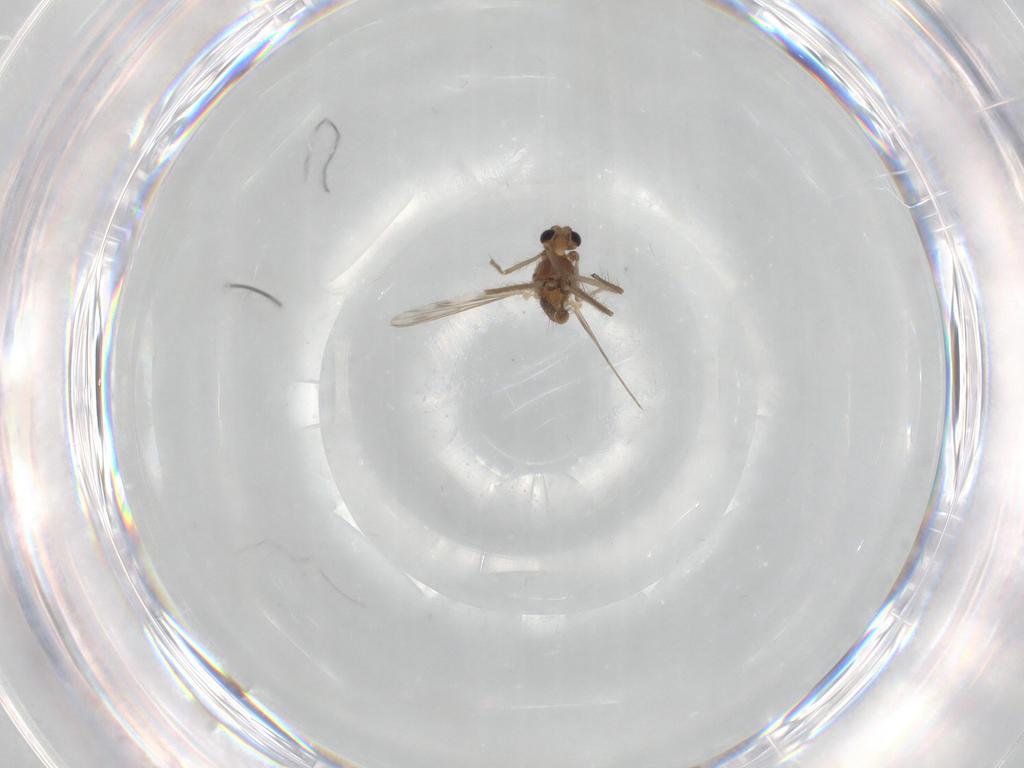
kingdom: Animalia
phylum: Arthropoda
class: Insecta
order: Diptera
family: Chironomidae
